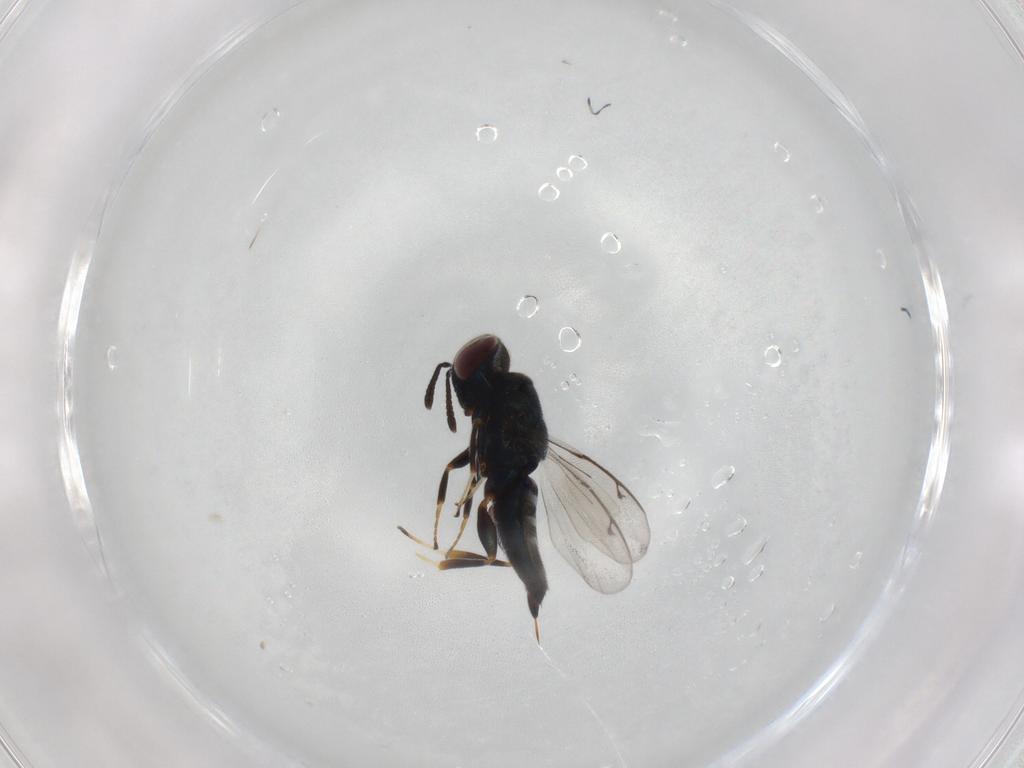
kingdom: Animalia
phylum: Arthropoda
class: Insecta
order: Hymenoptera
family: Pteromalidae
